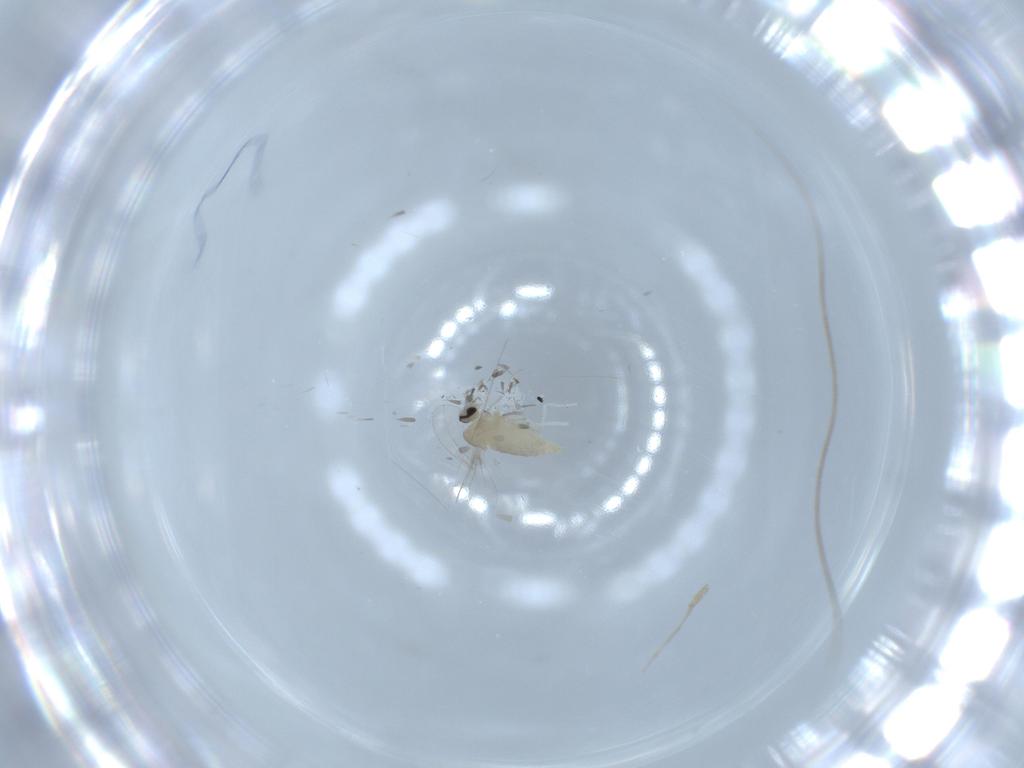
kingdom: Animalia
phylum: Arthropoda
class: Insecta
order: Diptera
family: Cecidomyiidae
